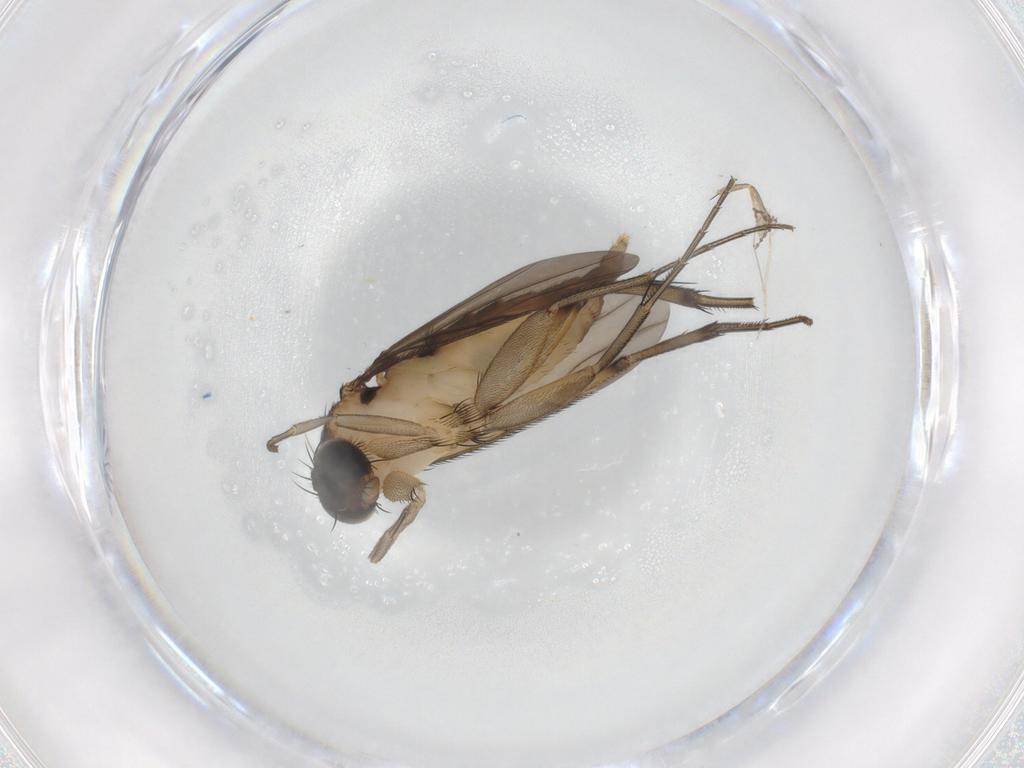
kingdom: Animalia
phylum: Arthropoda
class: Insecta
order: Diptera
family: Phoridae
